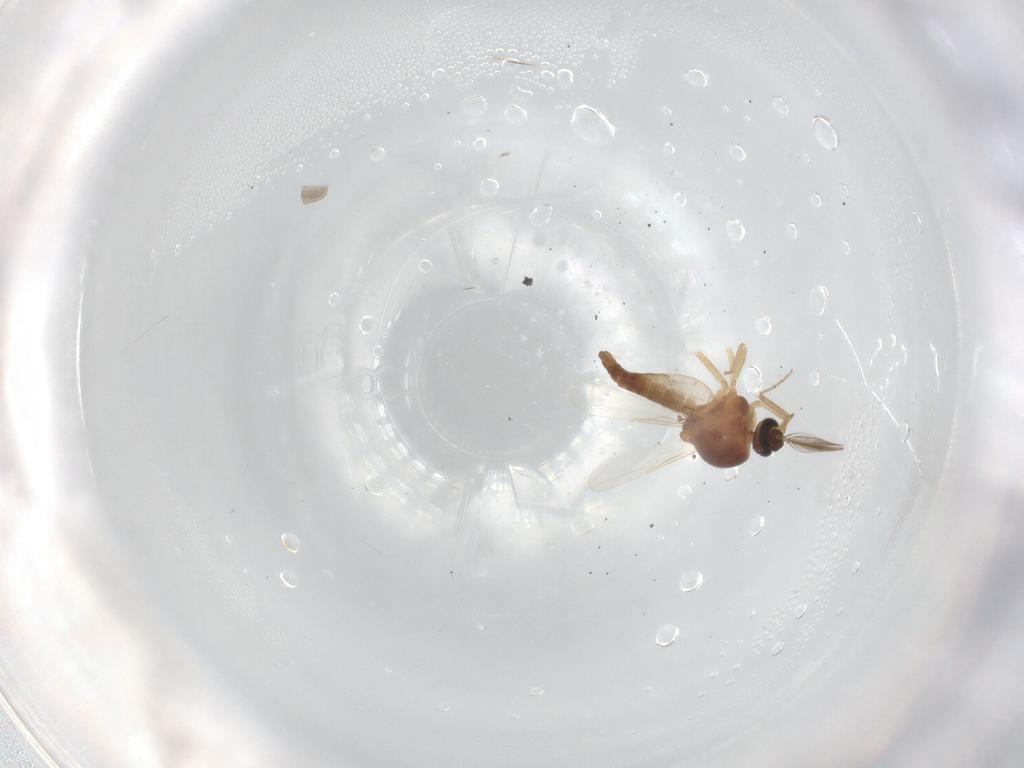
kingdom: Animalia
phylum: Arthropoda
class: Insecta
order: Diptera
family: Ceratopogonidae
